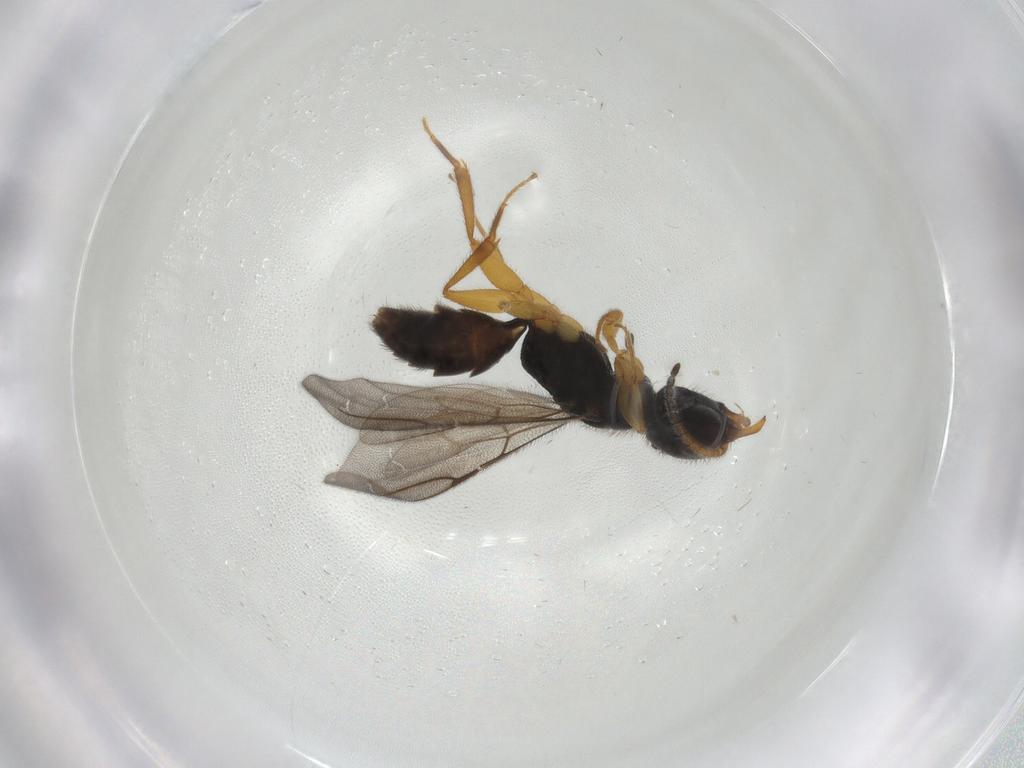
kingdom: Animalia
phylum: Arthropoda
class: Insecta
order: Hymenoptera
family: Bethylidae
